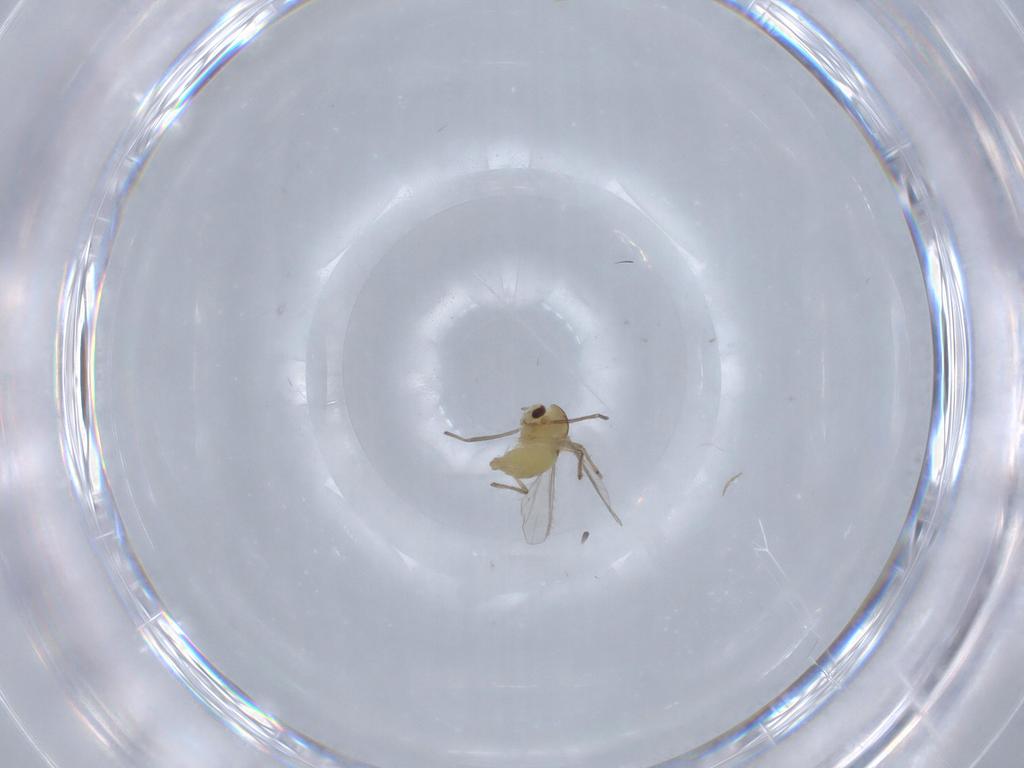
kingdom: Animalia
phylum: Arthropoda
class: Insecta
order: Diptera
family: Chironomidae
